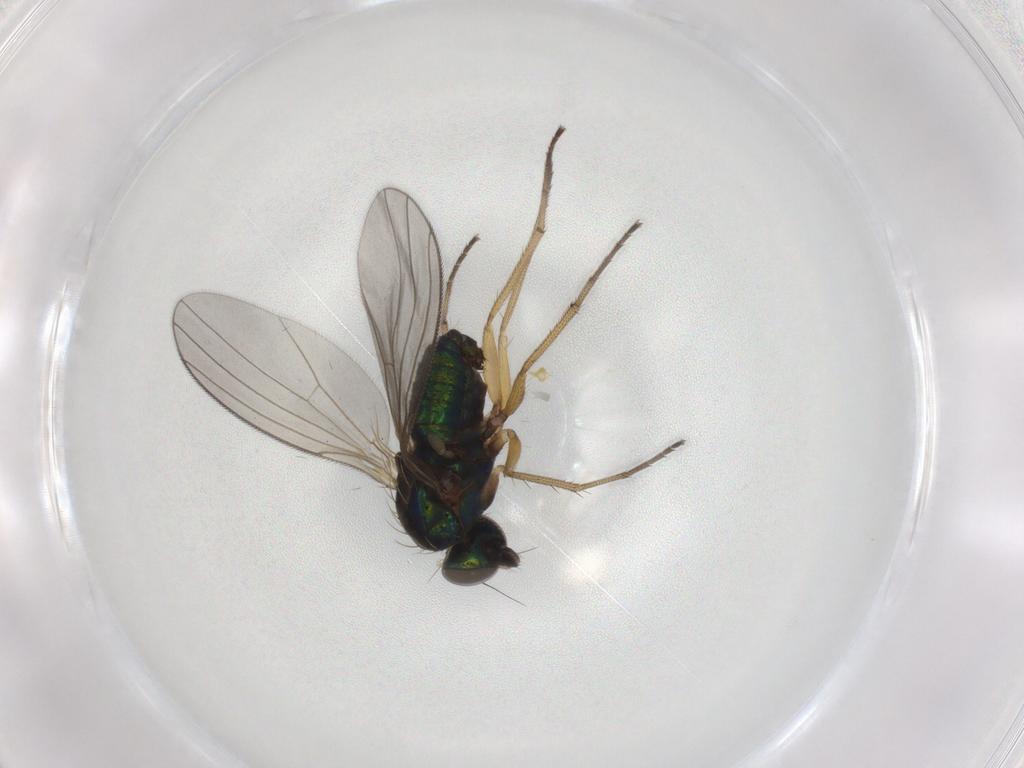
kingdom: Animalia
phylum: Arthropoda
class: Insecta
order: Diptera
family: Dolichopodidae
